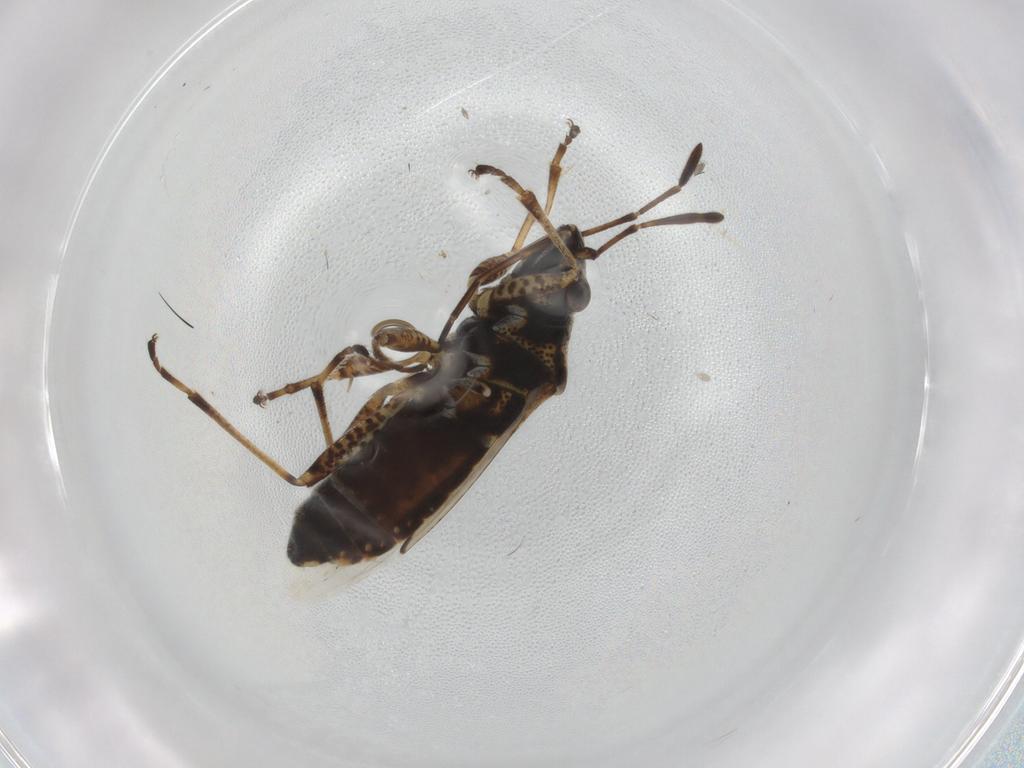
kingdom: Animalia
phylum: Arthropoda
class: Insecta
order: Hemiptera
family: Lygaeidae
